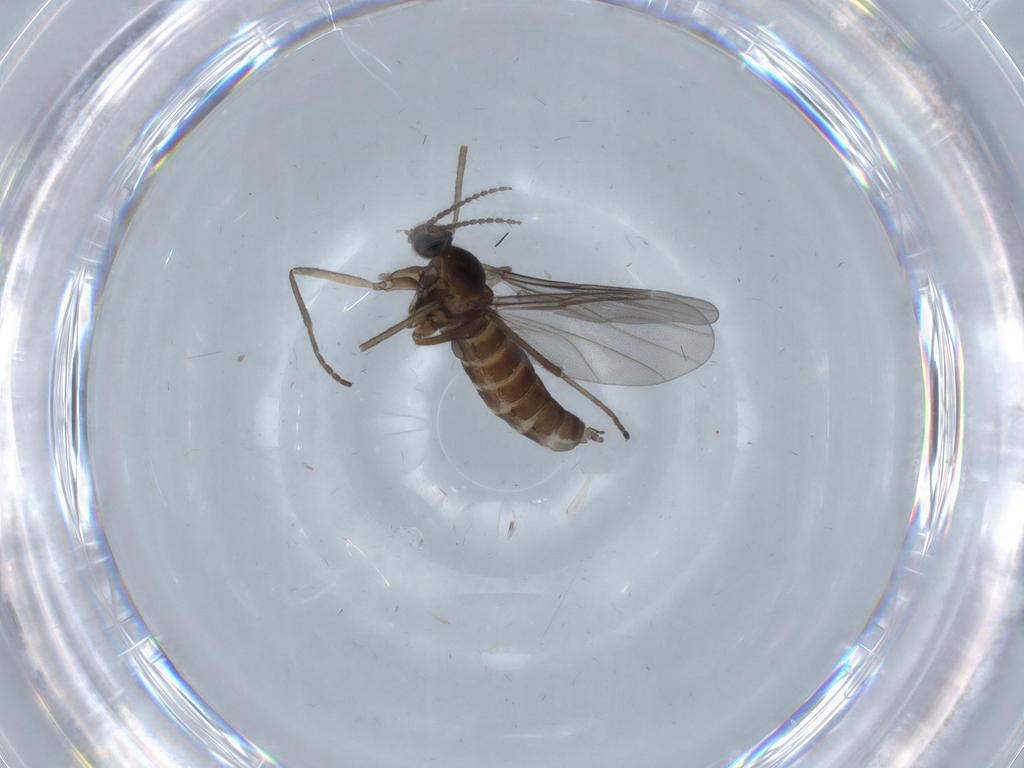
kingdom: Animalia
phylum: Arthropoda
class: Insecta
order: Diptera
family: Cecidomyiidae
